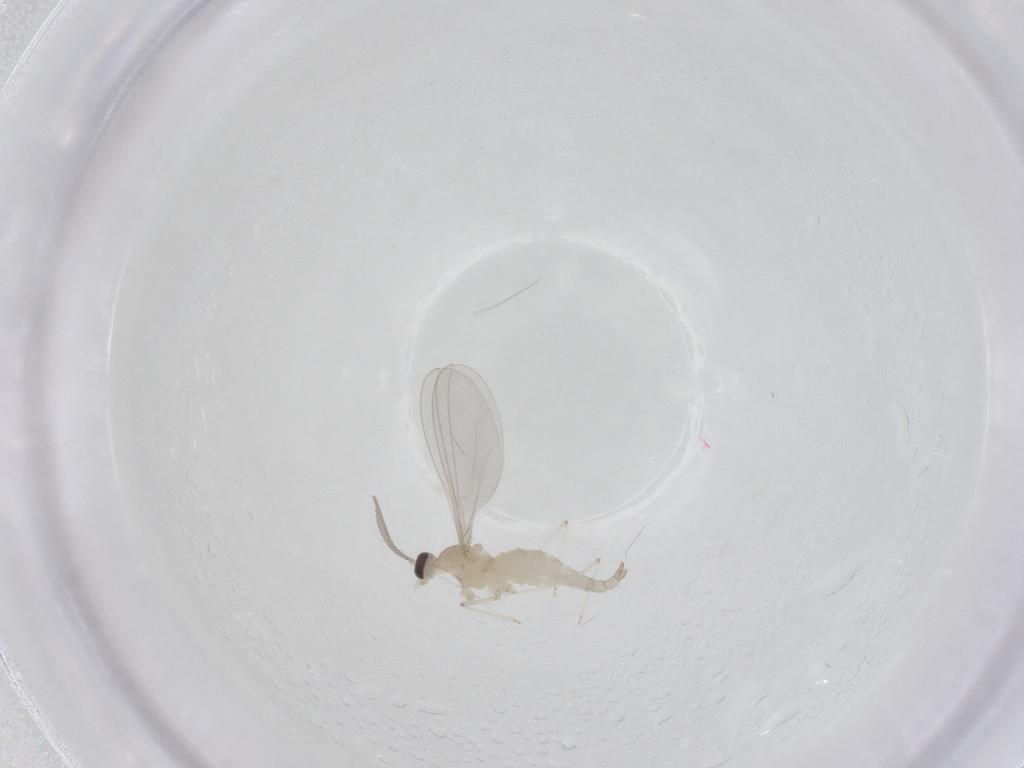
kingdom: Animalia
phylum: Arthropoda
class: Insecta
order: Diptera
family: Cecidomyiidae
